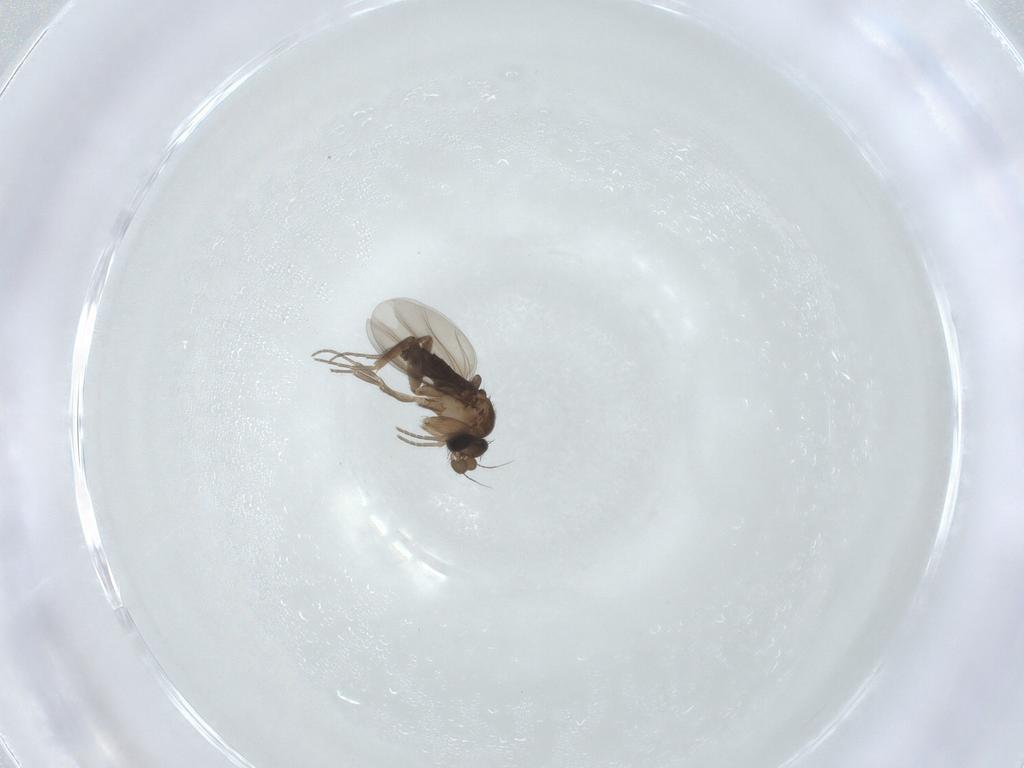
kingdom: Animalia
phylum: Arthropoda
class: Insecta
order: Diptera
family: Phoridae
